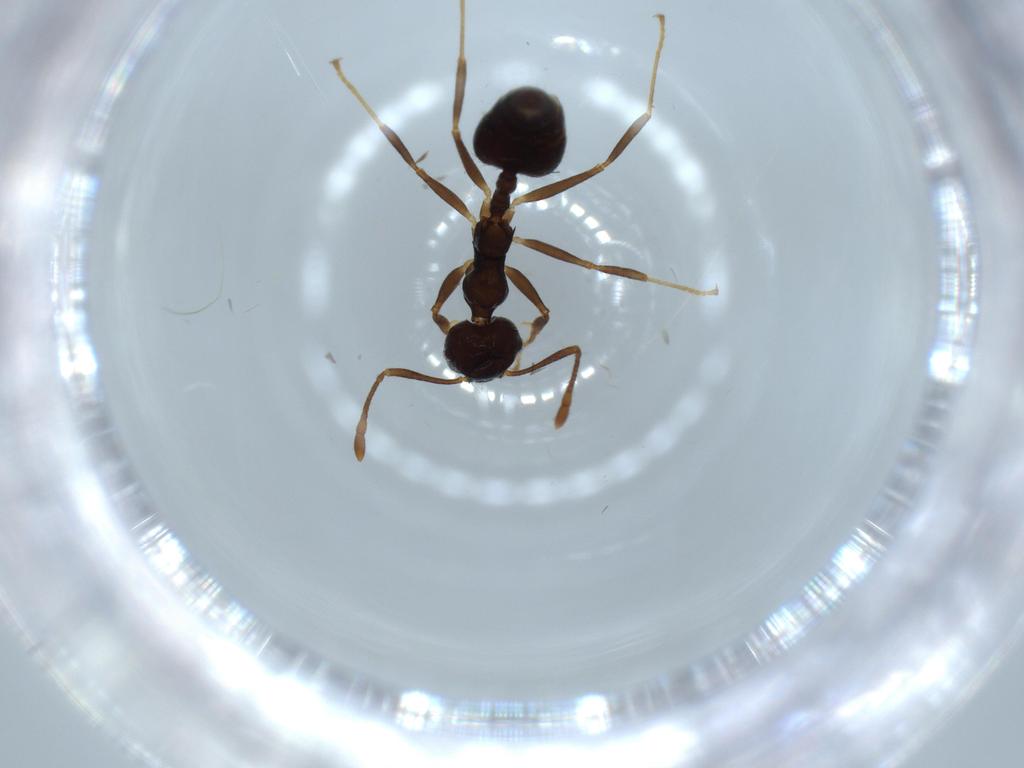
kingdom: Animalia
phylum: Arthropoda
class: Insecta
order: Hymenoptera
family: Formicidae
